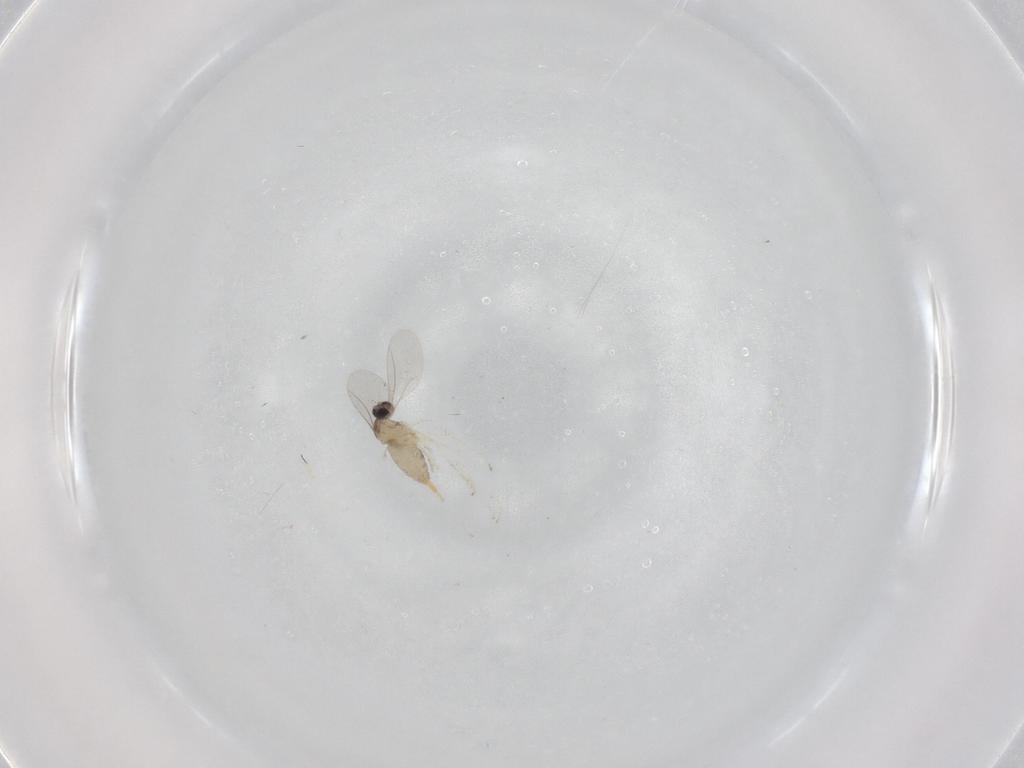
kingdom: Animalia
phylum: Arthropoda
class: Insecta
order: Diptera
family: Cecidomyiidae
